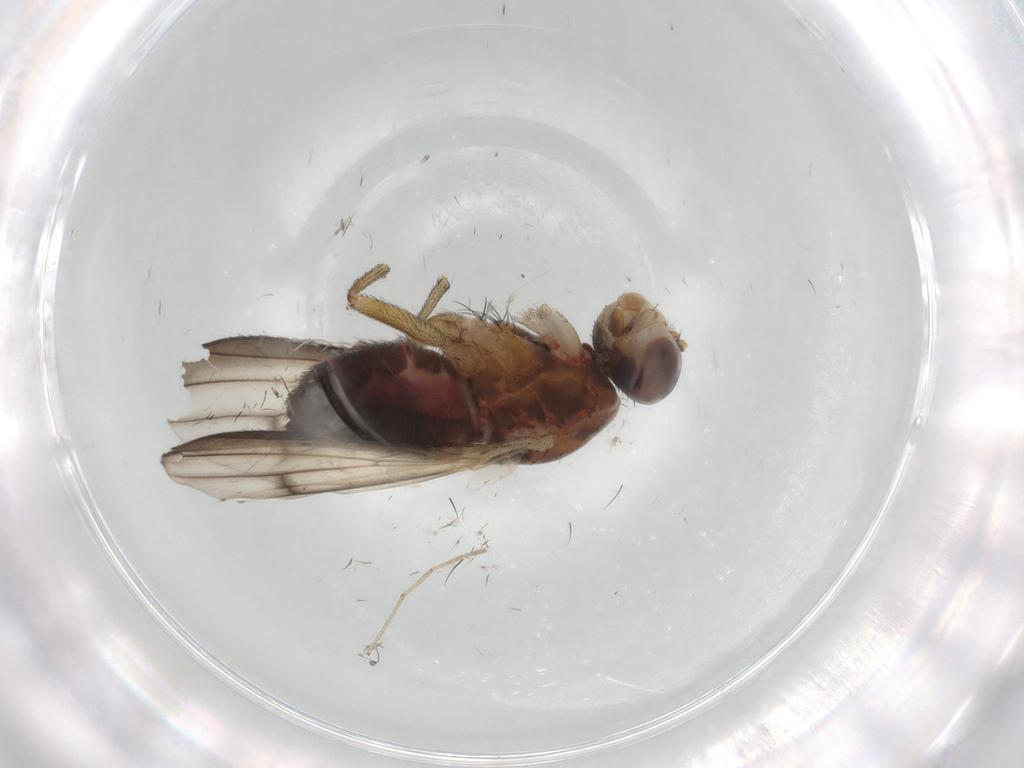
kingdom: Animalia
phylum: Arthropoda
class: Insecta
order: Diptera
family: Heleomyzidae
